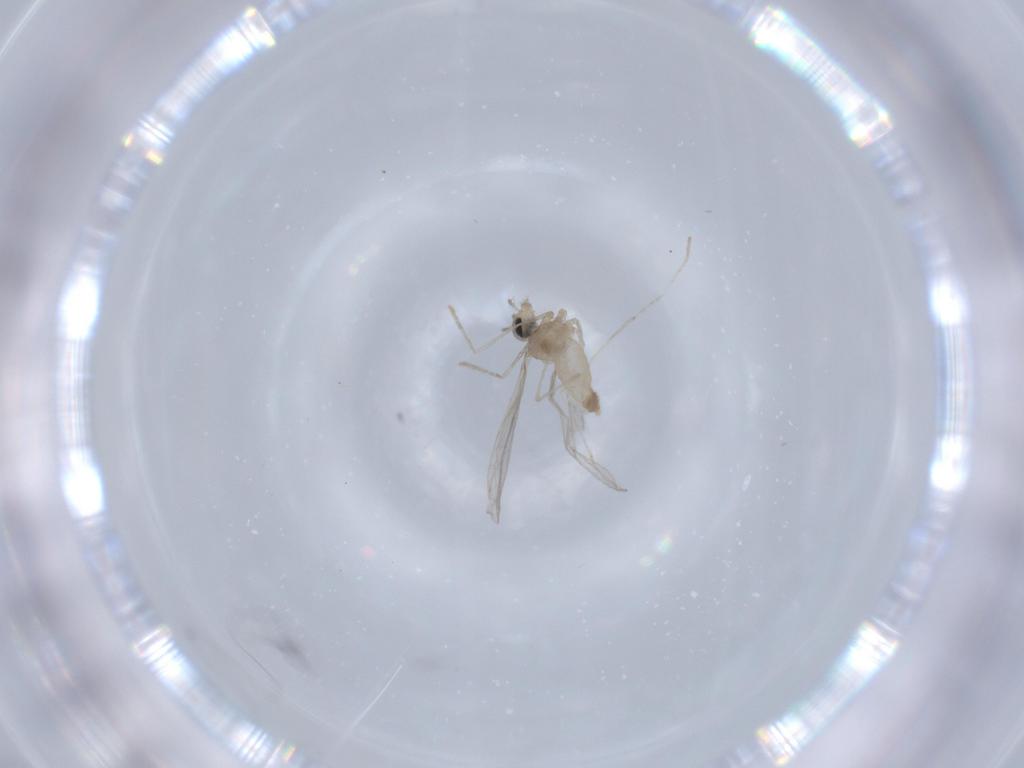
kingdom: Animalia
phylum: Arthropoda
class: Insecta
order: Diptera
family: Cecidomyiidae
